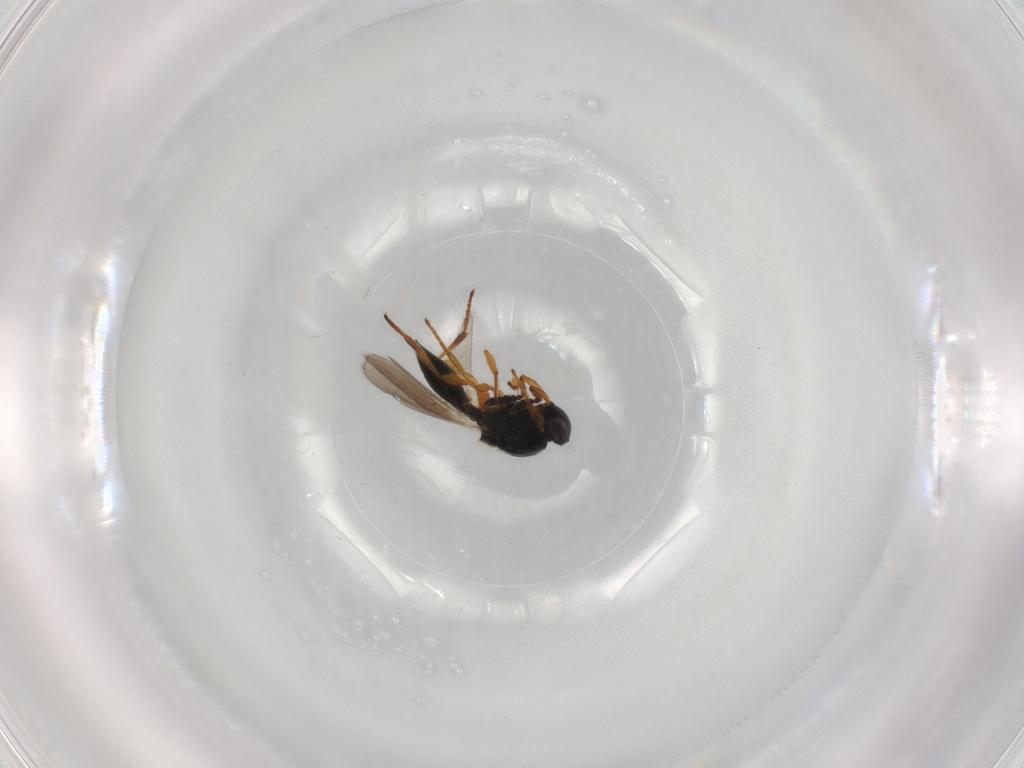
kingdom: Animalia
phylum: Arthropoda
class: Insecta
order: Hymenoptera
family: Platygastridae
